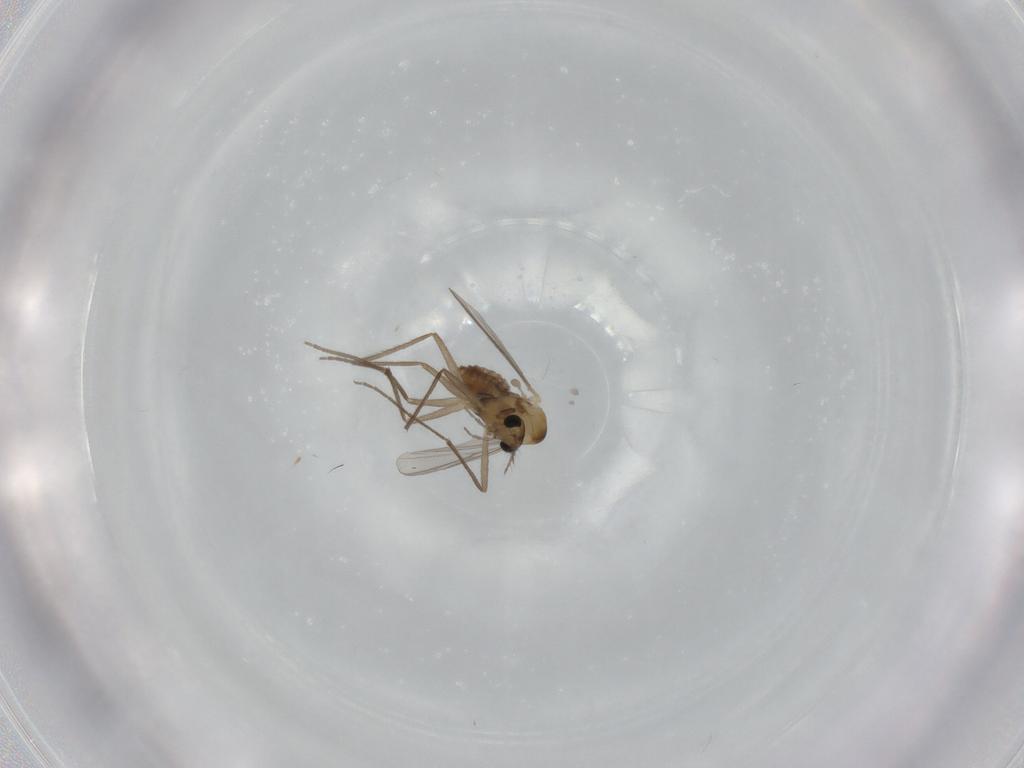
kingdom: Animalia
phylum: Arthropoda
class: Insecta
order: Diptera
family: Chironomidae
